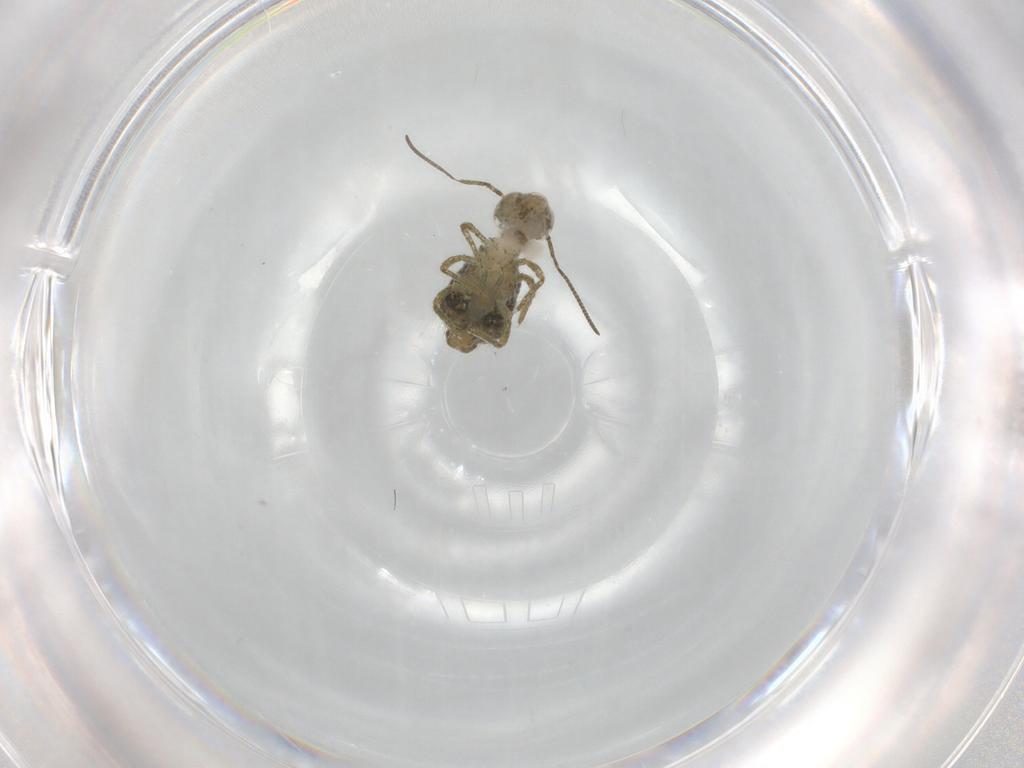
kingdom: Animalia
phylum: Arthropoda
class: Collembola
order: Symphypleona
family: Sminthuridae
